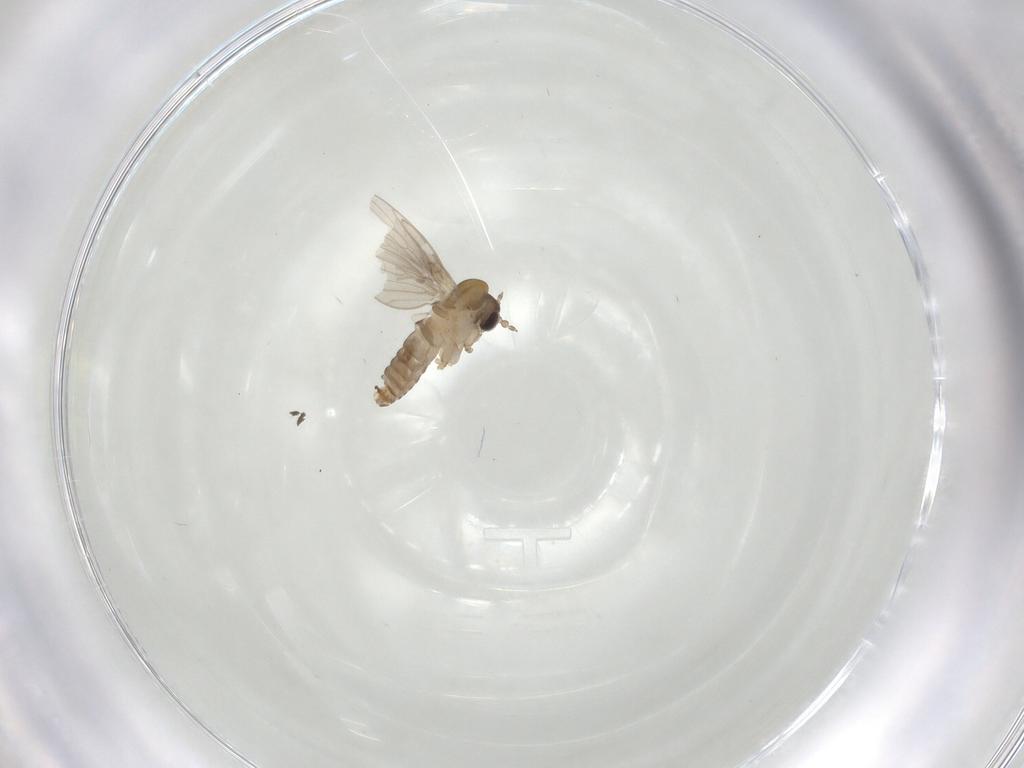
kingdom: Animalia
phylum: Arthropoda
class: Insecta
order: Diptera
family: Psychodidae
